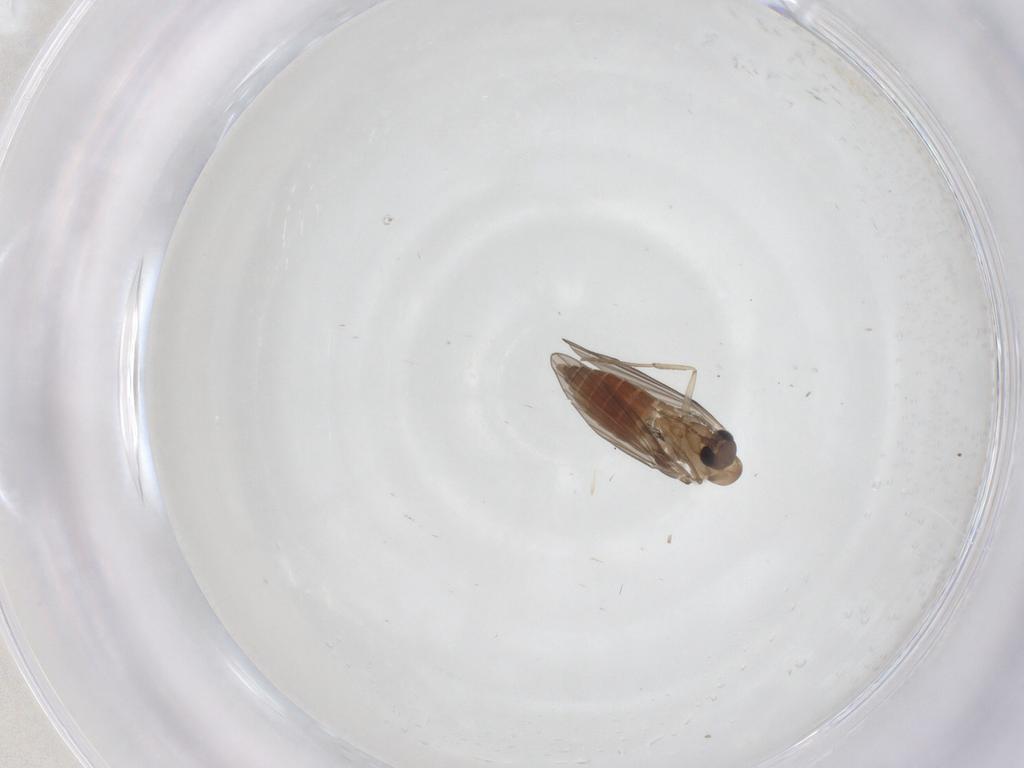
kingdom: Animalia
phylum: Arthropoda
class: Insecta
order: Diptera
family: Psychodidae
